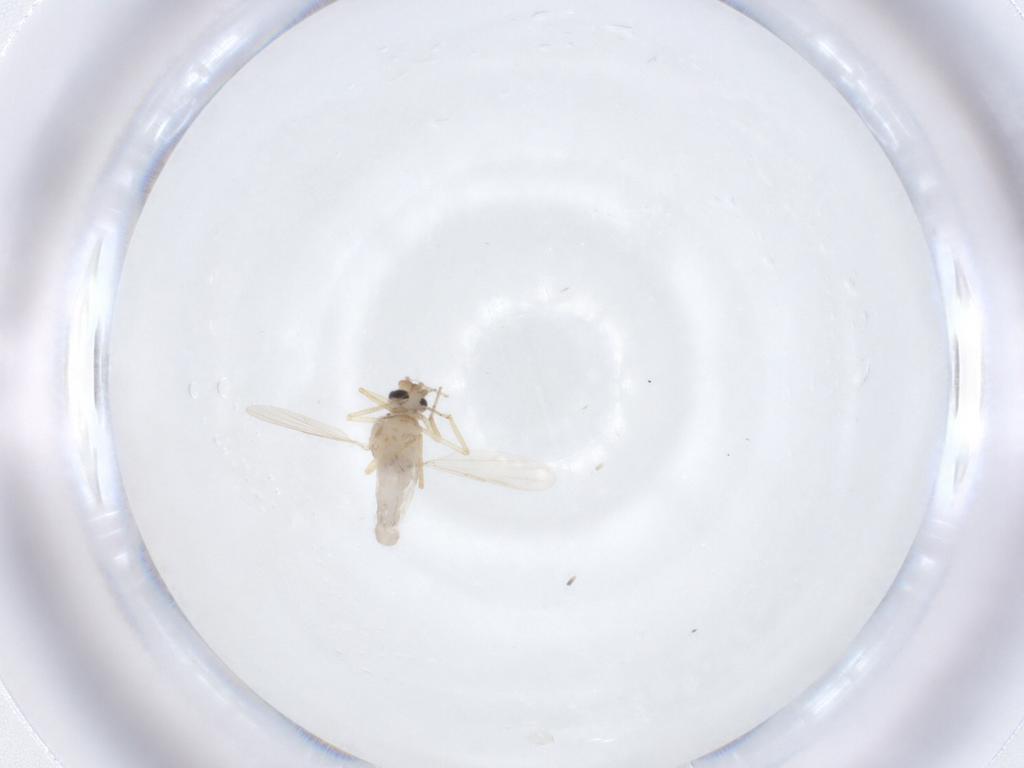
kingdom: Animalia
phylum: Arthropoda
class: Insecta
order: Diptera
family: Ceratopogonidae
